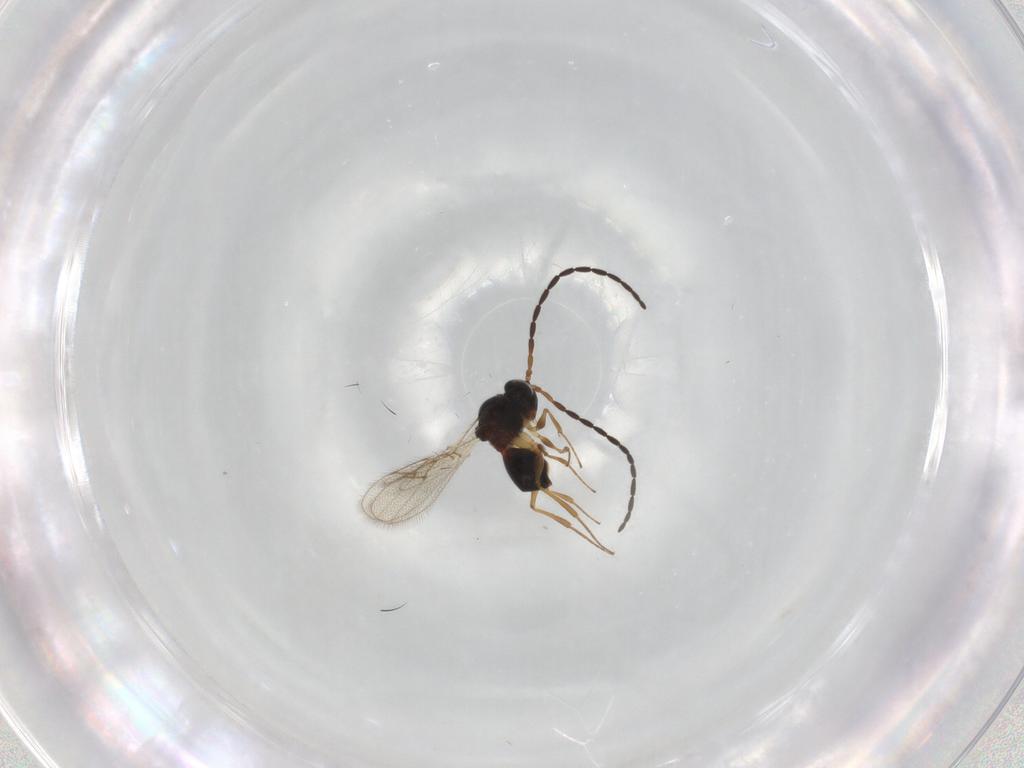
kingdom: Animalia
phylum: Arthropoda
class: Insecta
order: Hymenoptera
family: Figitidae
